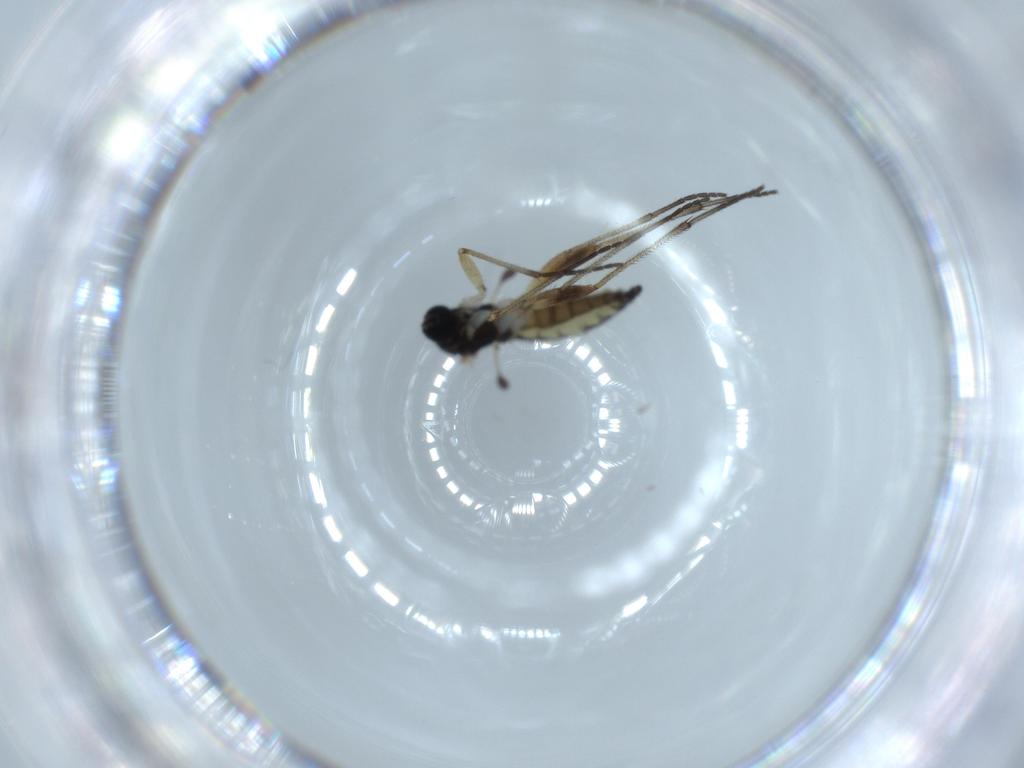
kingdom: Animalia
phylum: Arthropoda
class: Insecta
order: Diptera
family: Sciaridae
